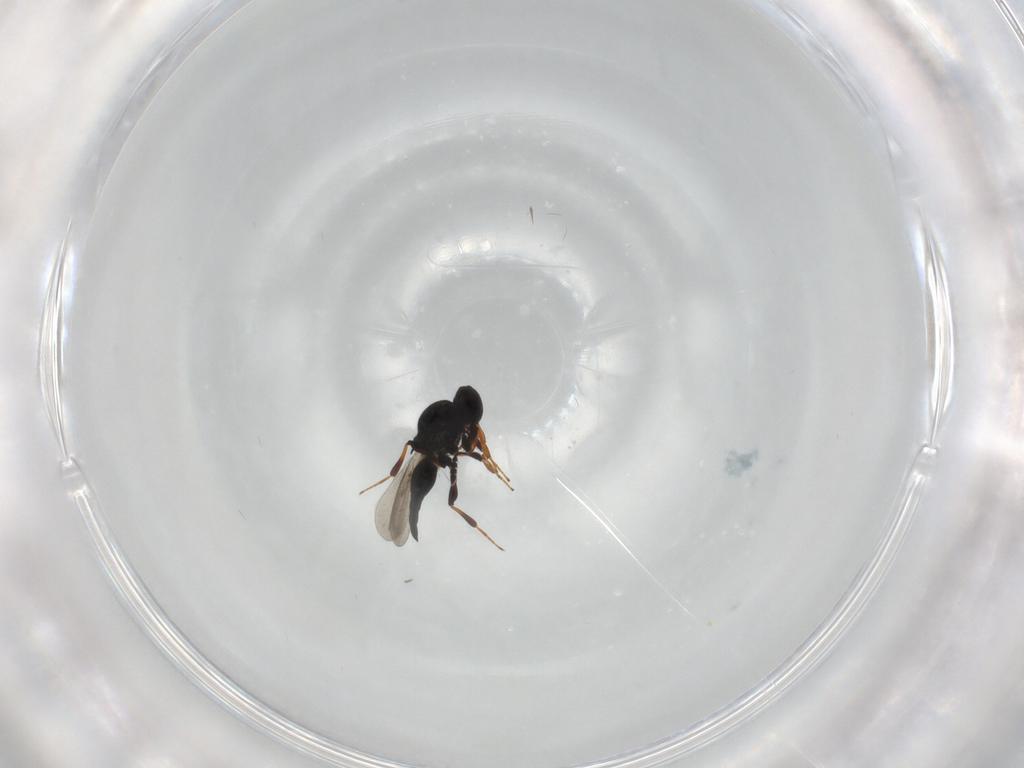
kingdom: Animalia
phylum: Arthropoda
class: Insecta
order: Hymenoptera
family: Platygastridae
